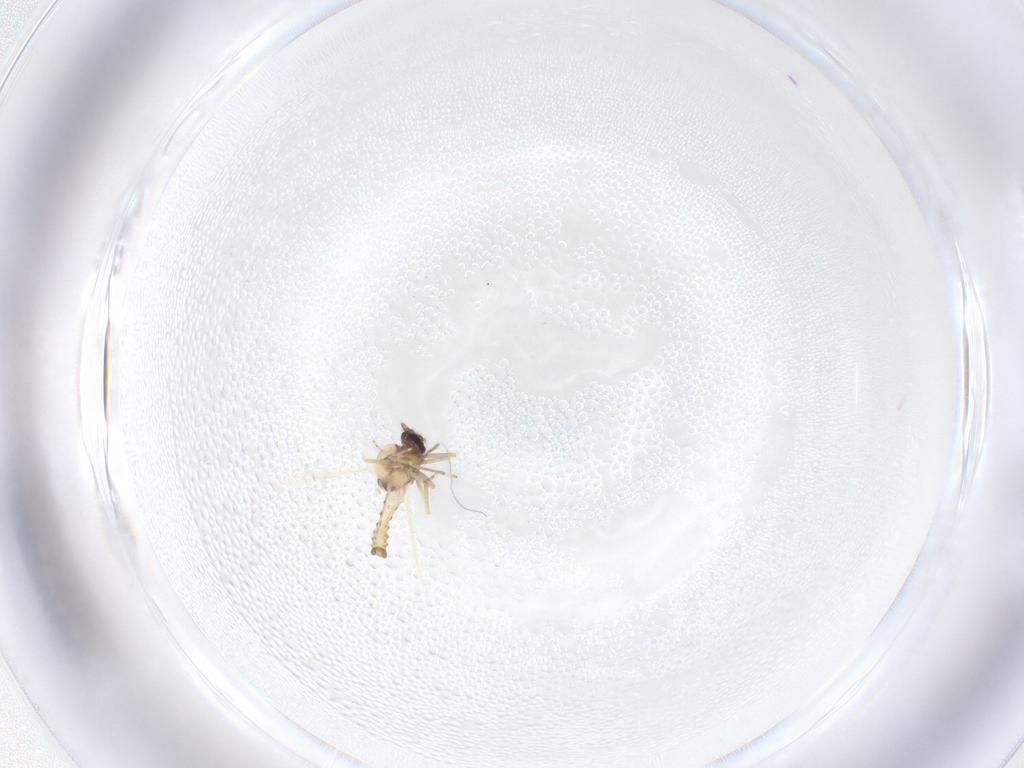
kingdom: Animalia
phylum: Arthropoda
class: Insecta
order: Diptera
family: Ceratopogonidae
